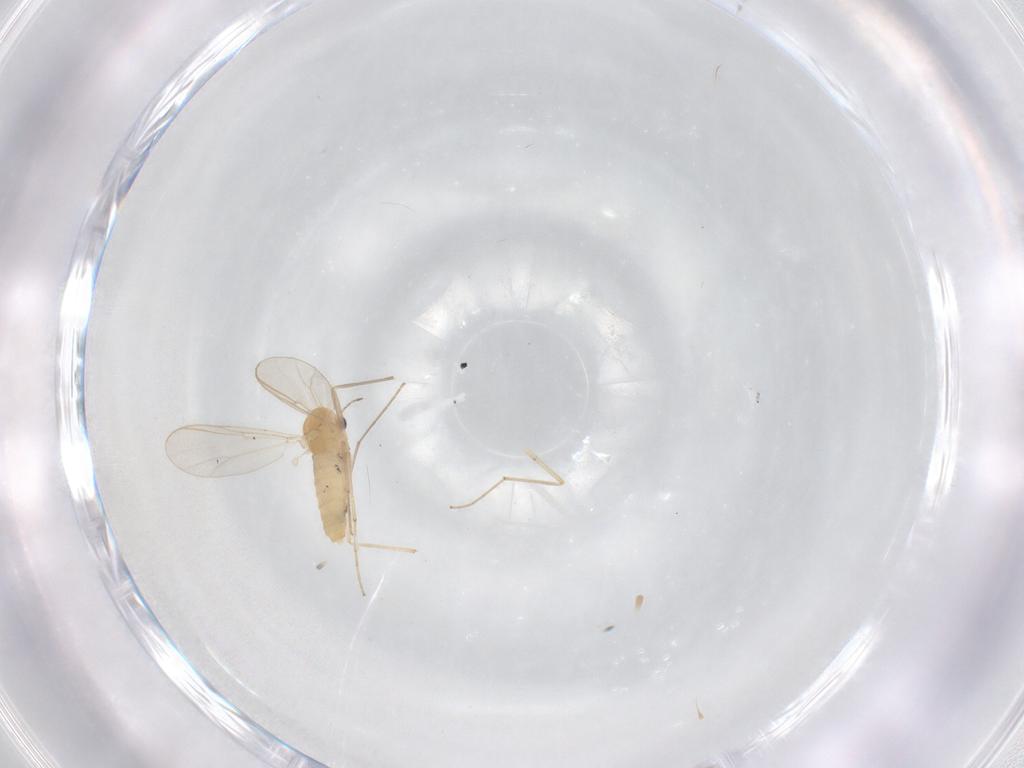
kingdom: Animalia
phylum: Arthropoda
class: Insecta
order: Diptera
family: Chironomidae
